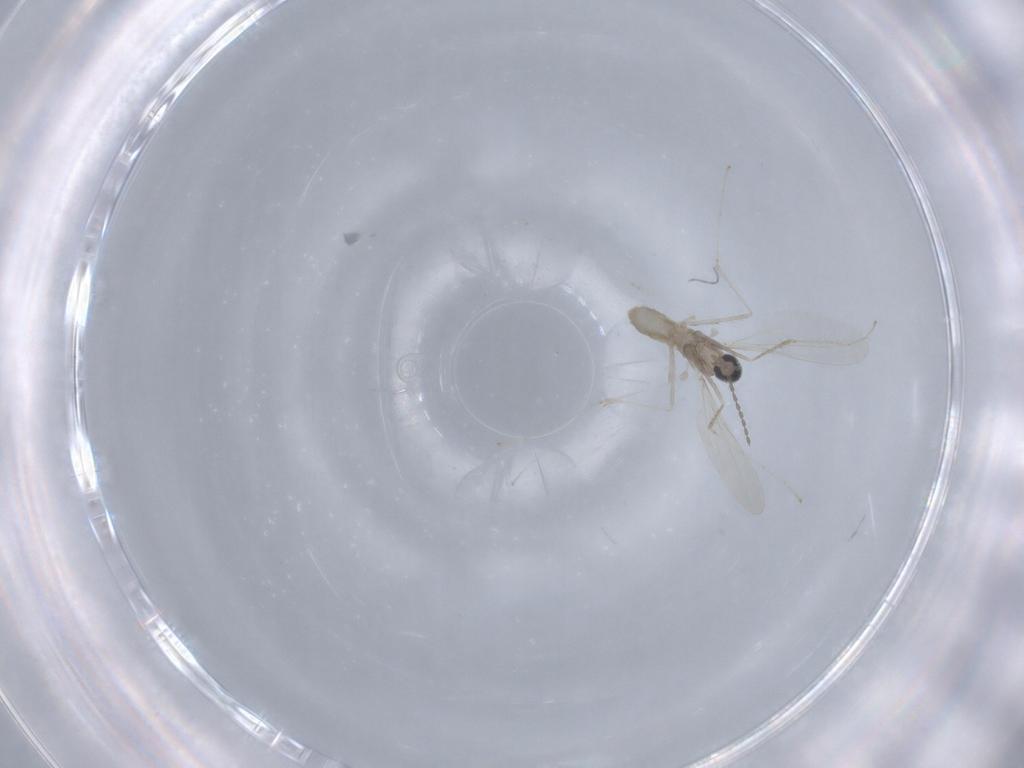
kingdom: Animalia
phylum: Arthropoda
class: Insecta
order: Diptera
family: Cecidomyiidae
